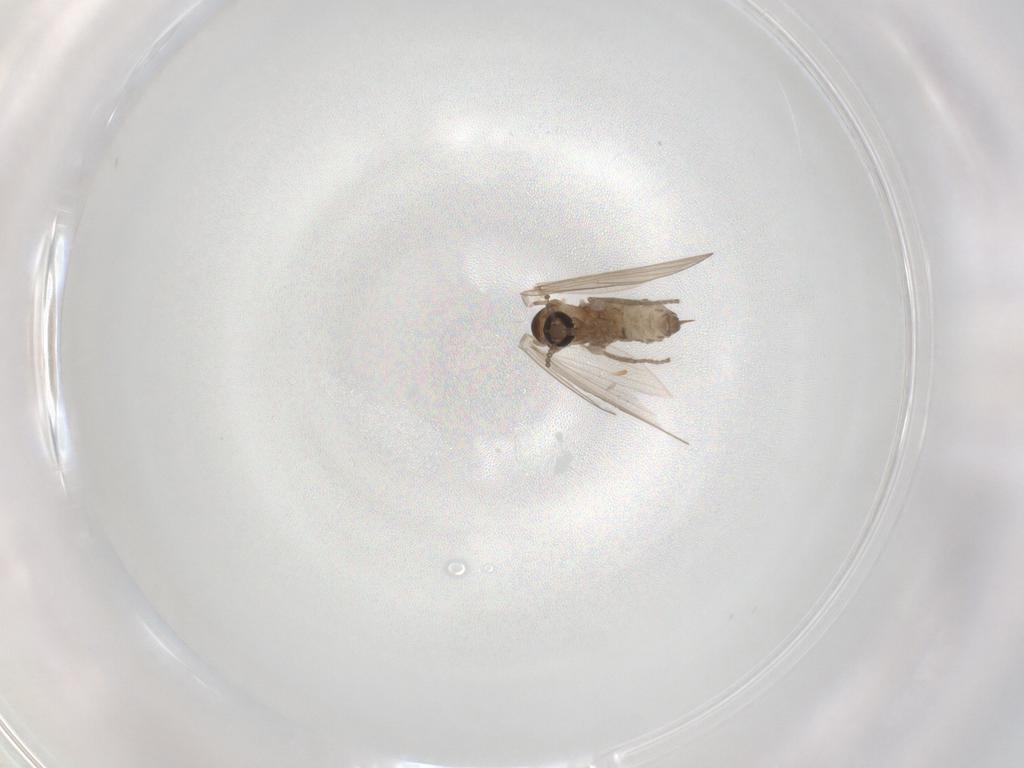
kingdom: Animalia
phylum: Arthropoda
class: Insecta
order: Diptera
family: Psychodidae
